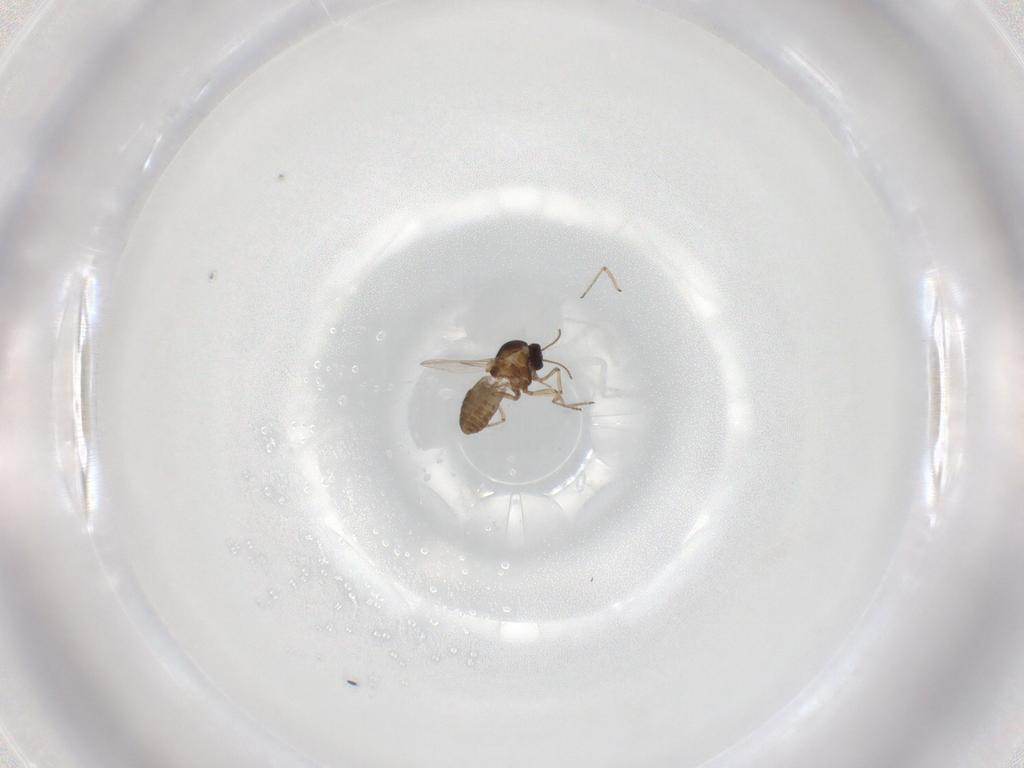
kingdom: Animalia
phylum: Arthropoda
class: Insecta
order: Diptera
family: Ceratopogonidae
